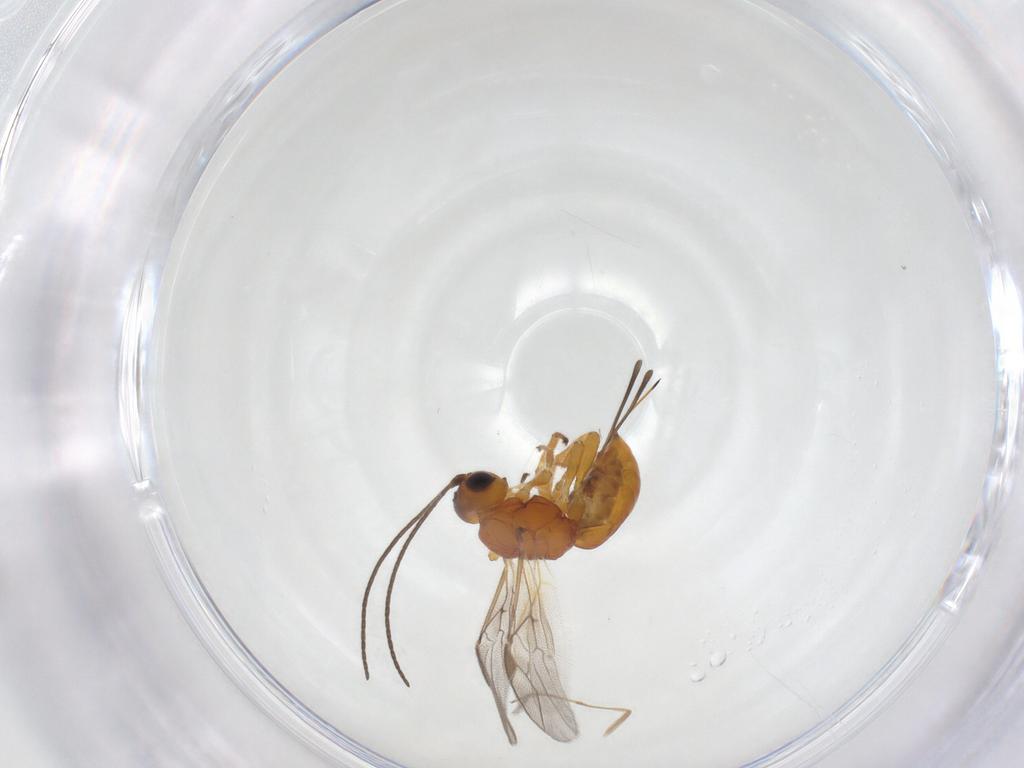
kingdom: Animalia
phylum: Arthropoda
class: Insecta
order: Hymenoptera
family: Braconidae
